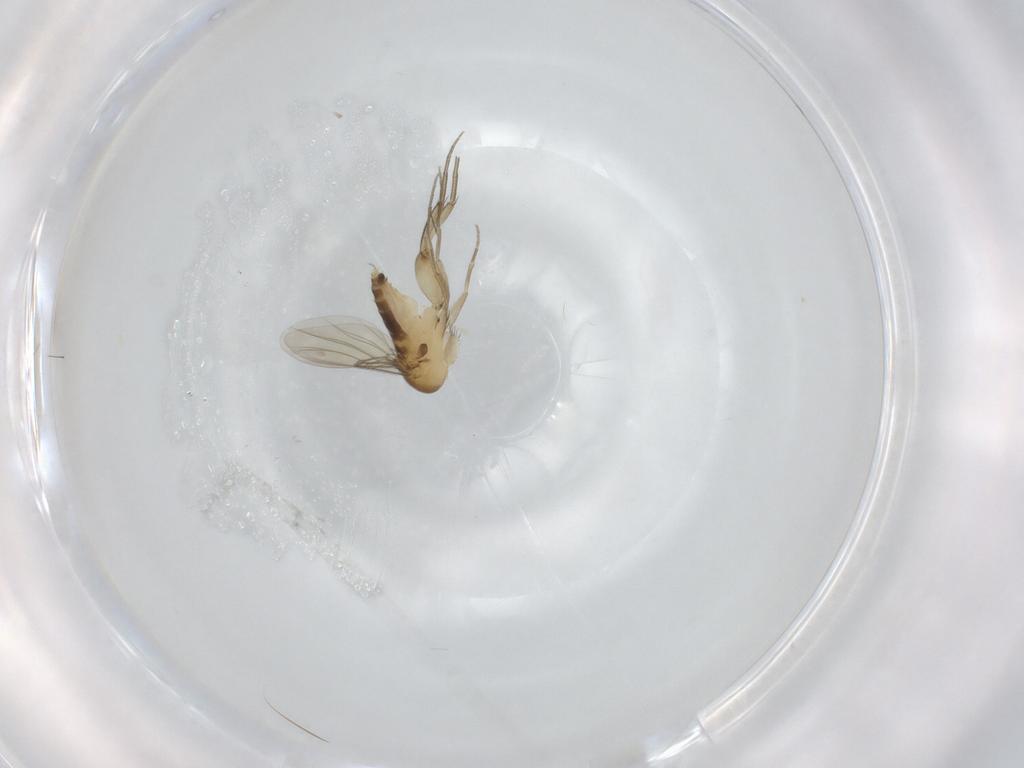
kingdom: Animalia
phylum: Arthropoda
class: Insecta
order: Diptera
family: Phoridae
